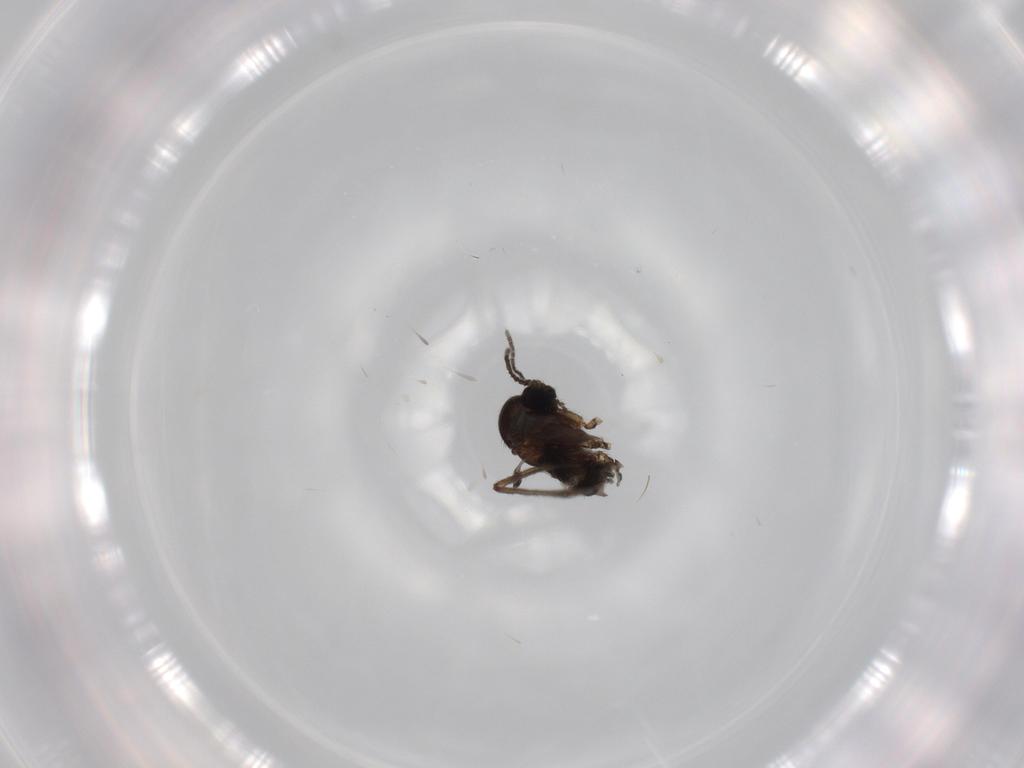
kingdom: Animalia
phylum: Arthropoda
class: Insecta
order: Diptera
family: Sciaridae
